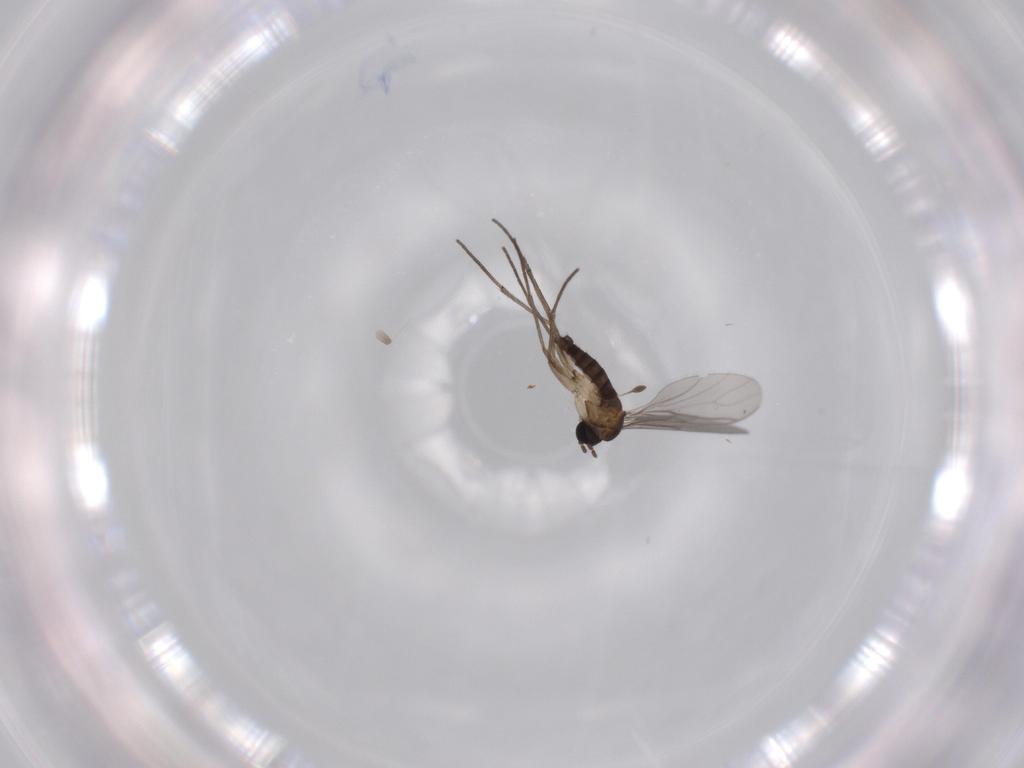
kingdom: Animalia
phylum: Arthropoda
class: Insecta
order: Diptera
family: Sciaridae
